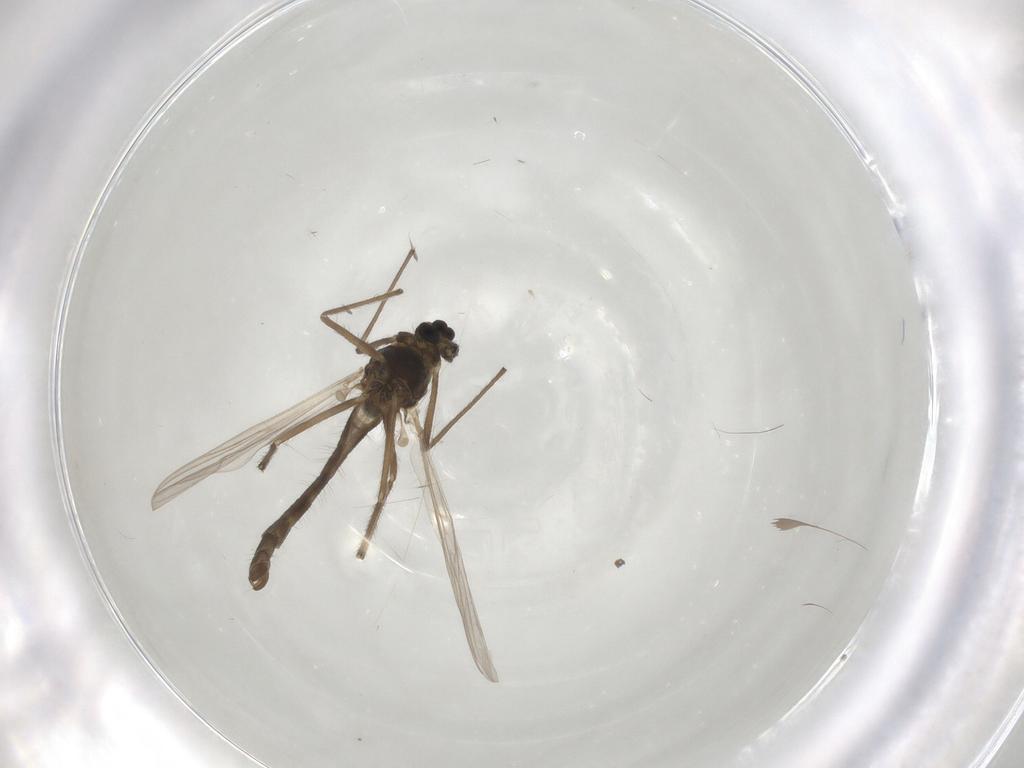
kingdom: Animalia
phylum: Arthropoda
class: Insecta
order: Diptera
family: Chironomidae
